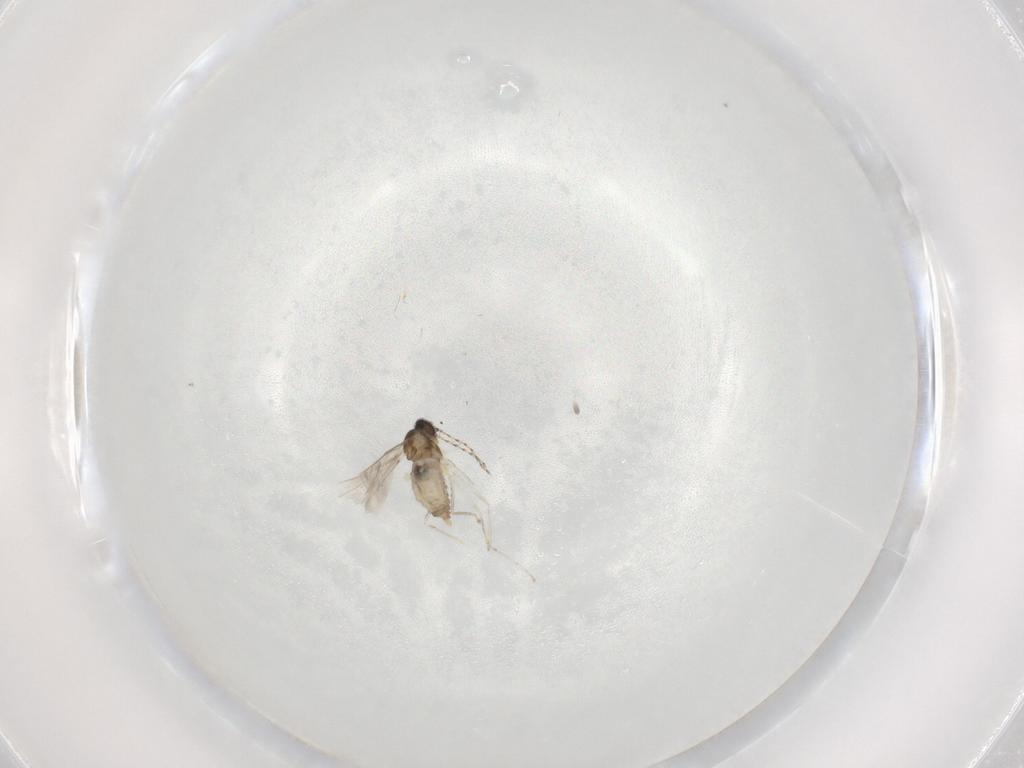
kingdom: Animalia
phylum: Arthropoda
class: Insecta
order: Diptera
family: Cecidomyiidae
